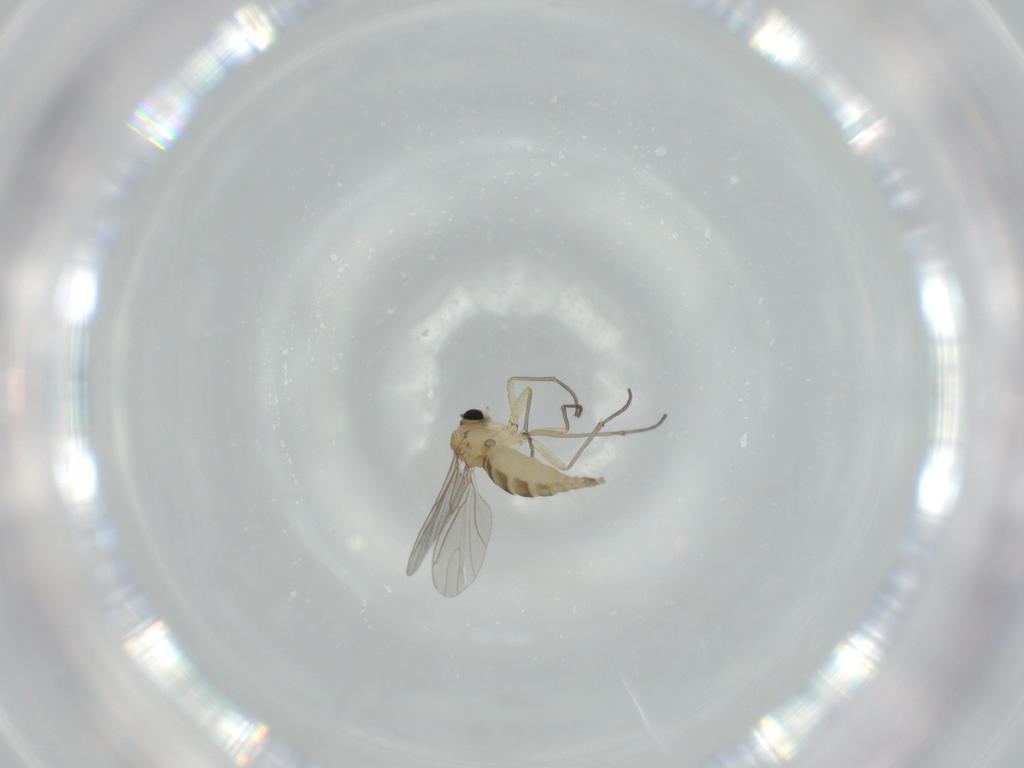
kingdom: Animalia
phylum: Arthropoda
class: Insecta
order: Diptera
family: Sciaridae
